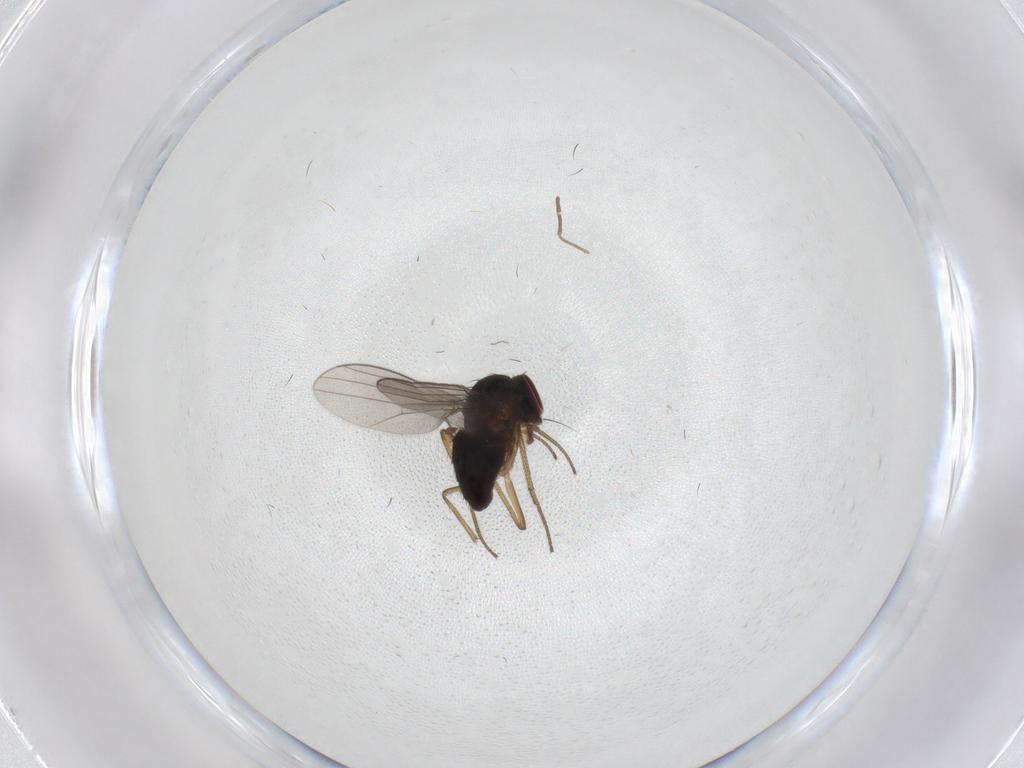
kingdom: Animalia
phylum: Arthropoda
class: Insecta
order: Diptera
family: Dolichopodidae
